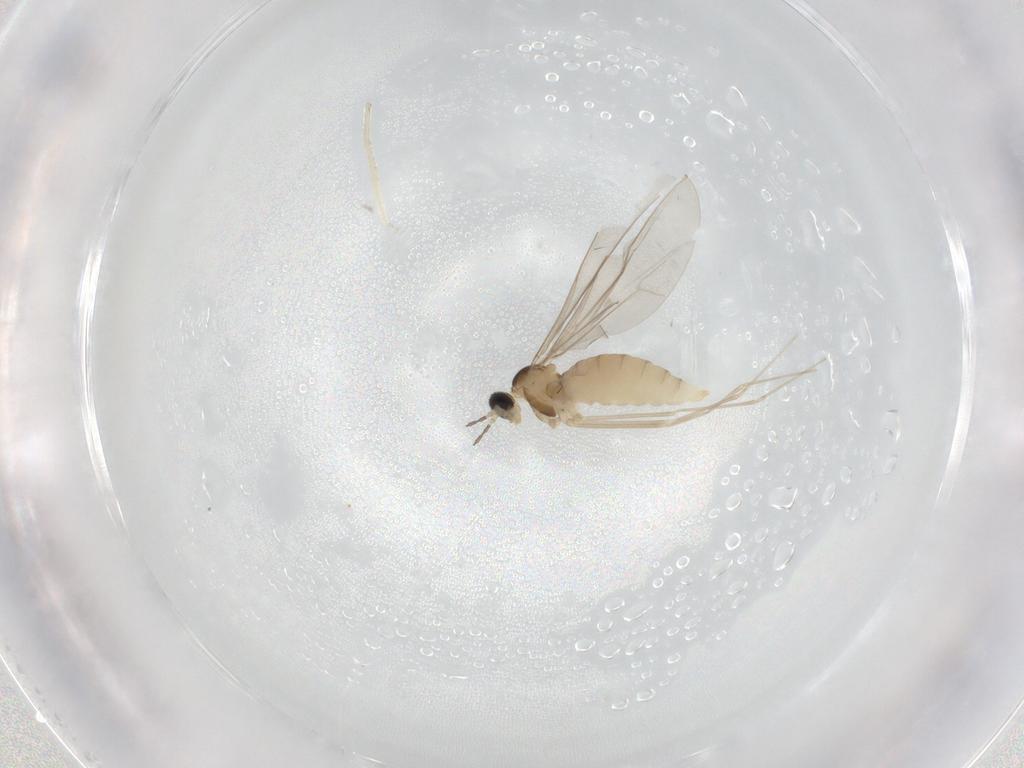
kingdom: Animalia
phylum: Arthropoda
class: Insecta
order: Diptera
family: Cecidomyiidae
